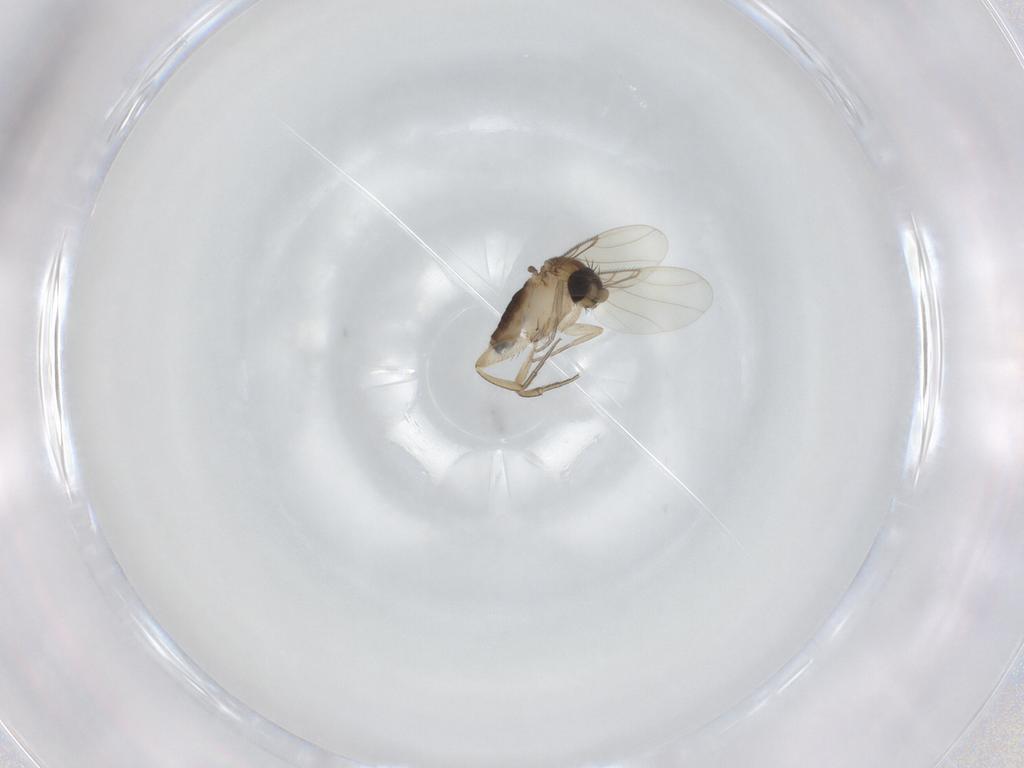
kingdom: Animalia
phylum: Arthropoda
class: Insecta
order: Diptera
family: Phoridae
